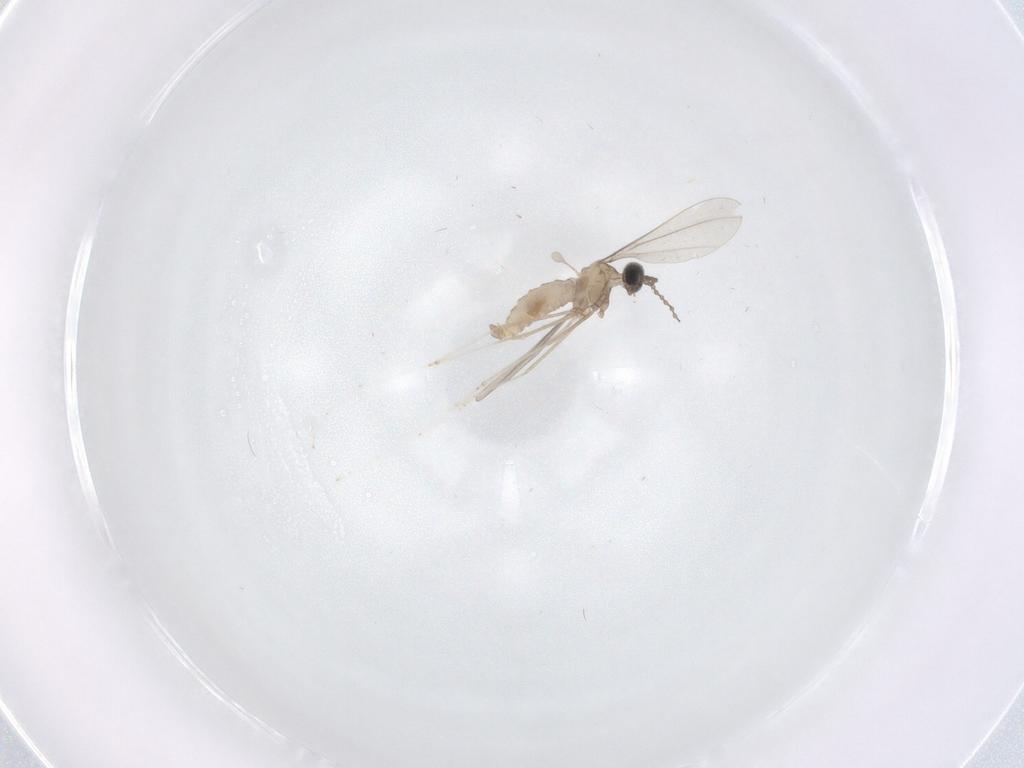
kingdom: Animalia
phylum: Arthropoda
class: Insecta
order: Diptera
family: Cecidomyiidae
